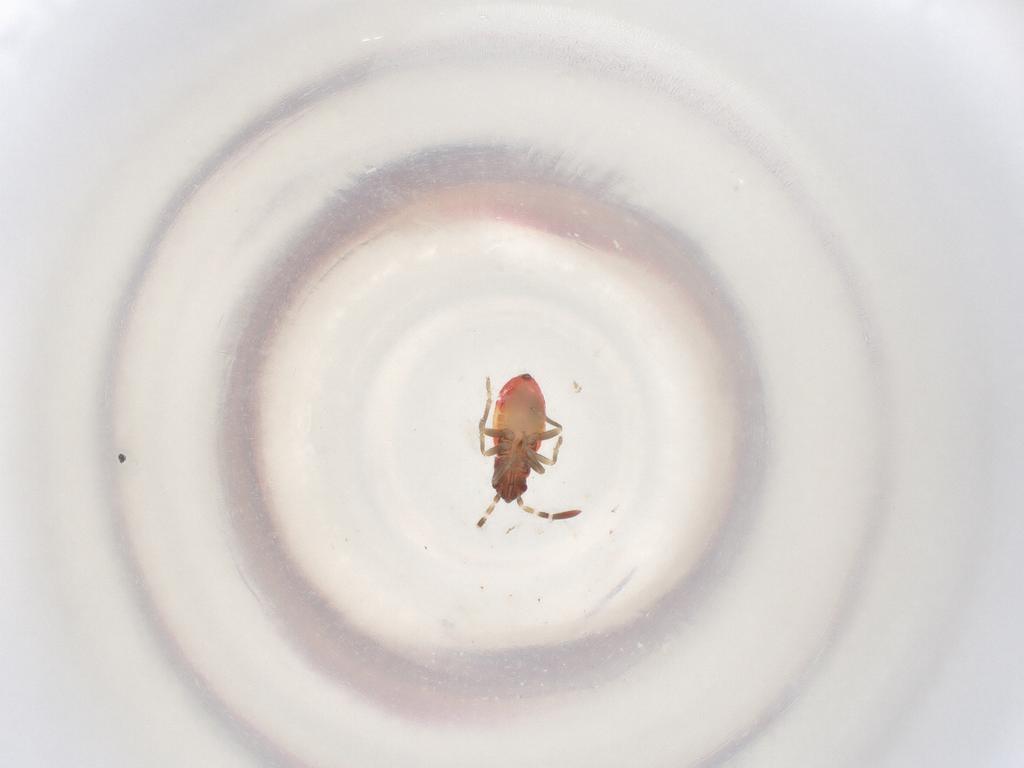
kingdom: Animalia
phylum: Arthropoda
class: Insecta
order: Hemiptera
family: Rhyparochromidae
